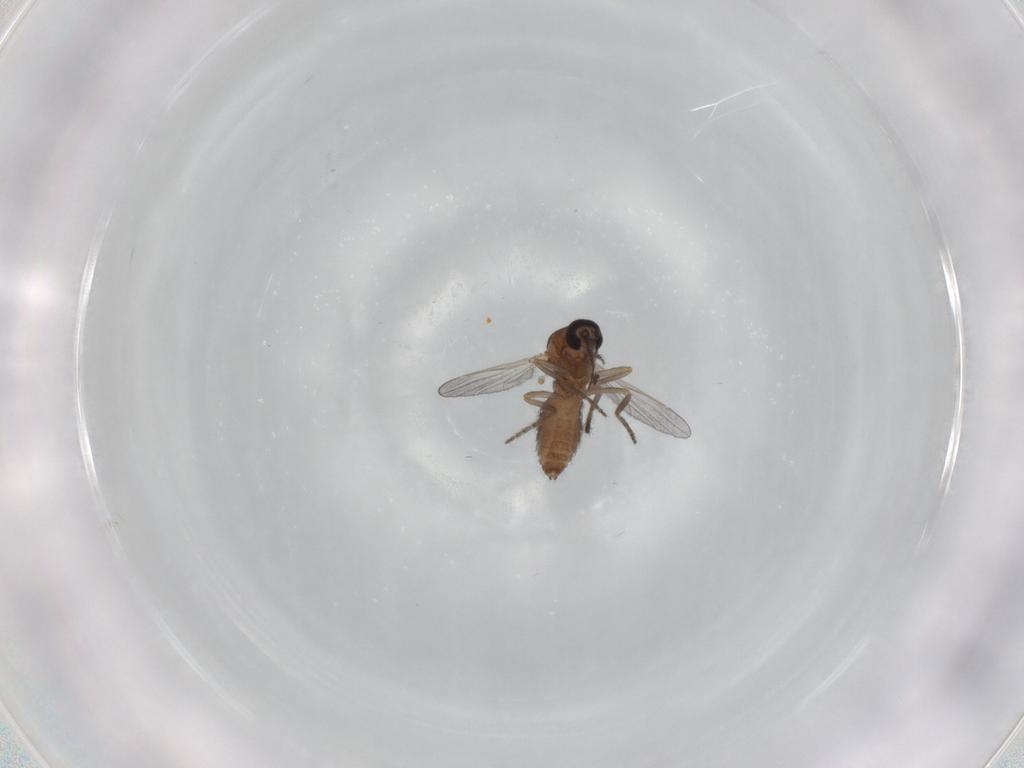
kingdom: Animalia
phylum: Arthropoda
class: Insecta
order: Diptera
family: Ceratopogonidae
